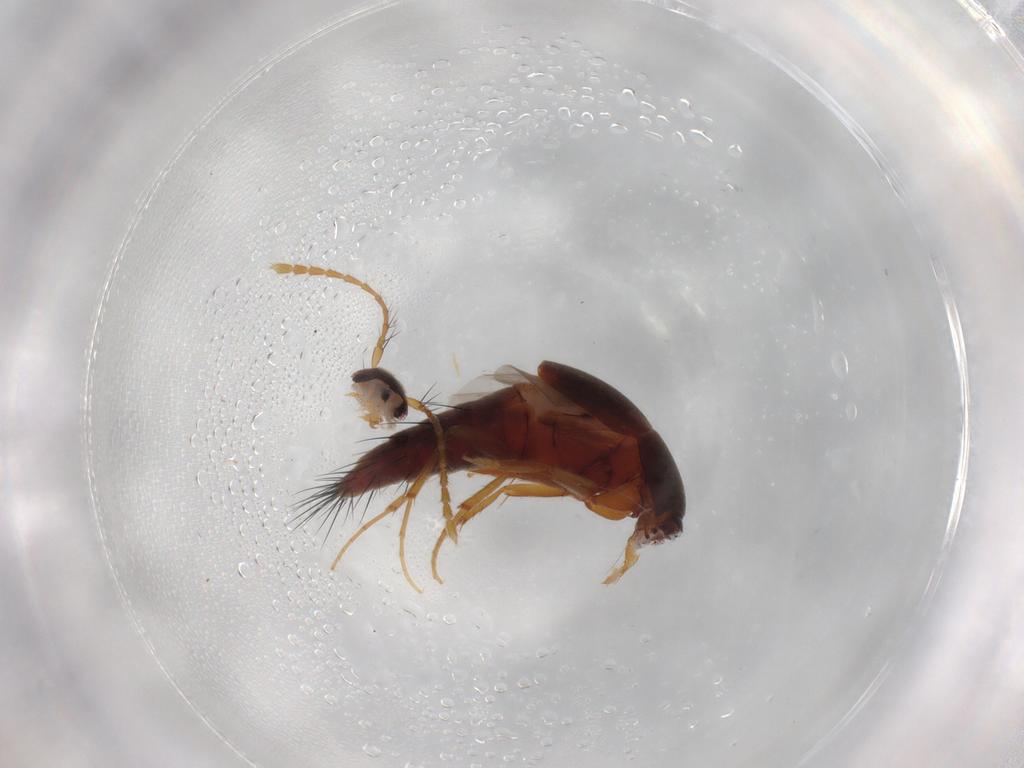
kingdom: Animalia
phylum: Arthropoda
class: Insecta
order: Coleoptera
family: Staphylinidae
